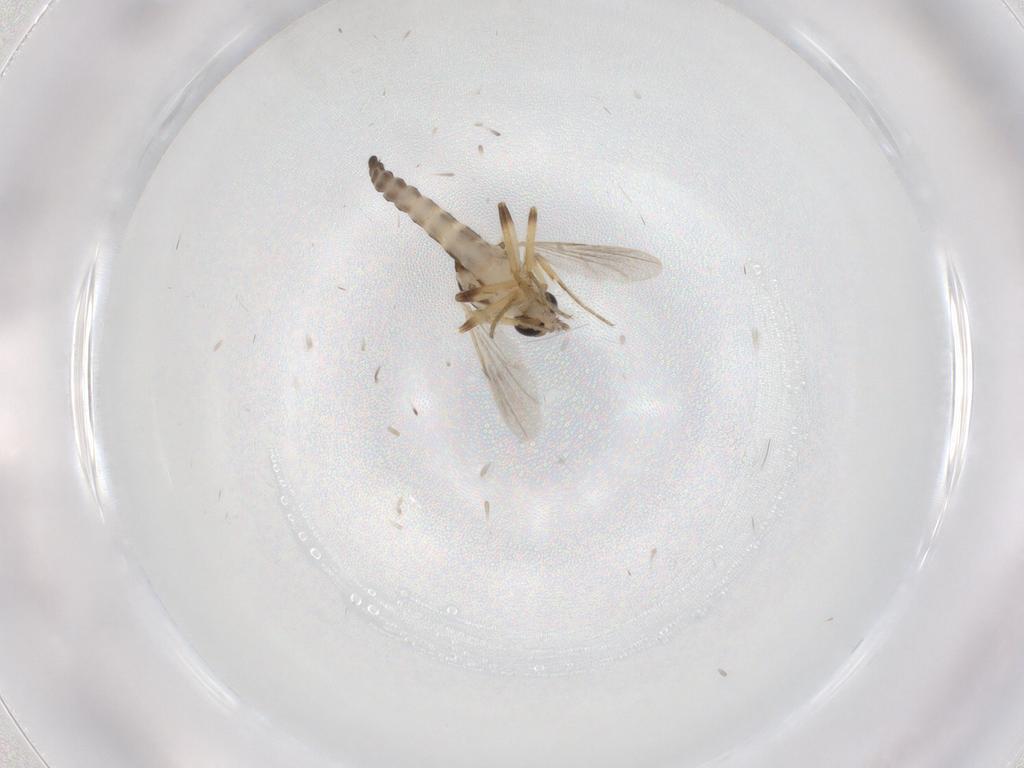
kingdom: Animalia
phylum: Arthropoda
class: Insecta
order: Diptera
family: Ceratopogonidae
